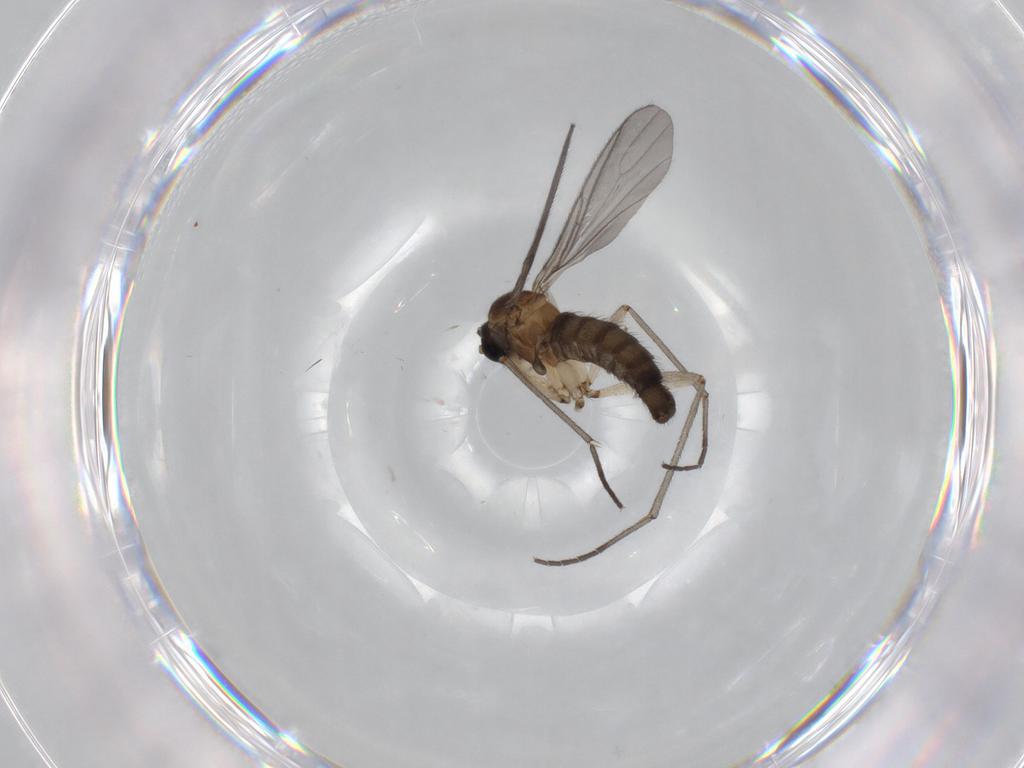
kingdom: Animalia
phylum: Arthropoda
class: Insecta
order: Diptera
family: Sciaridae
